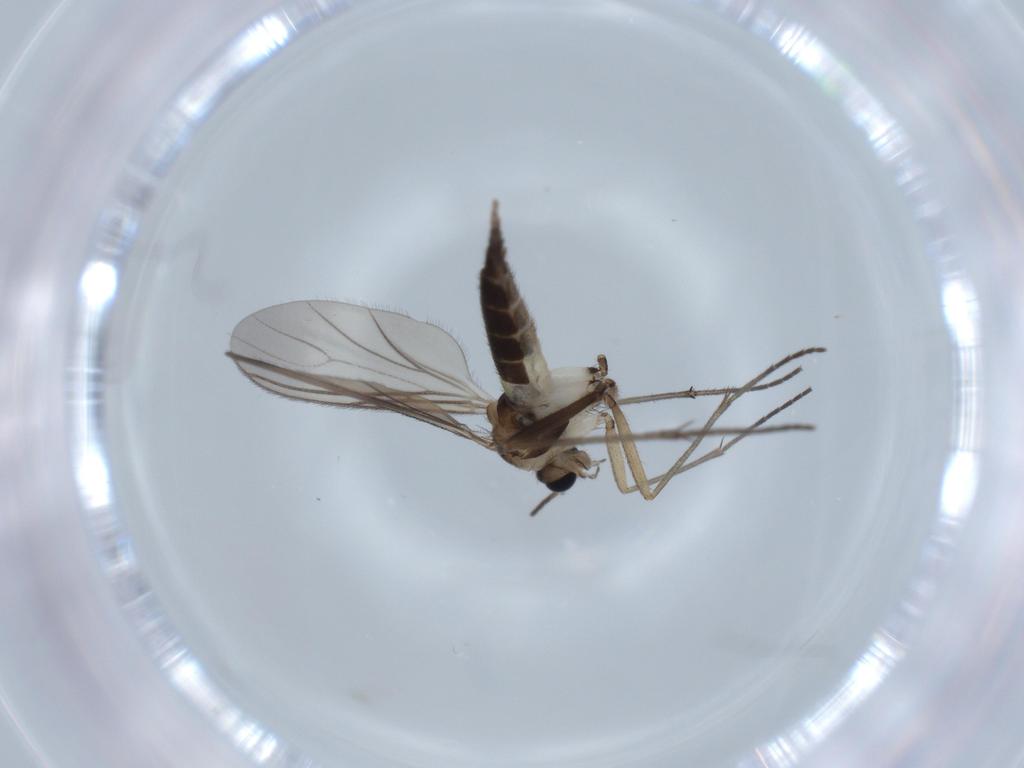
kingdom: Animalia
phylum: Arthropoda
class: Insecta
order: Diptera
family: Sciaridae
